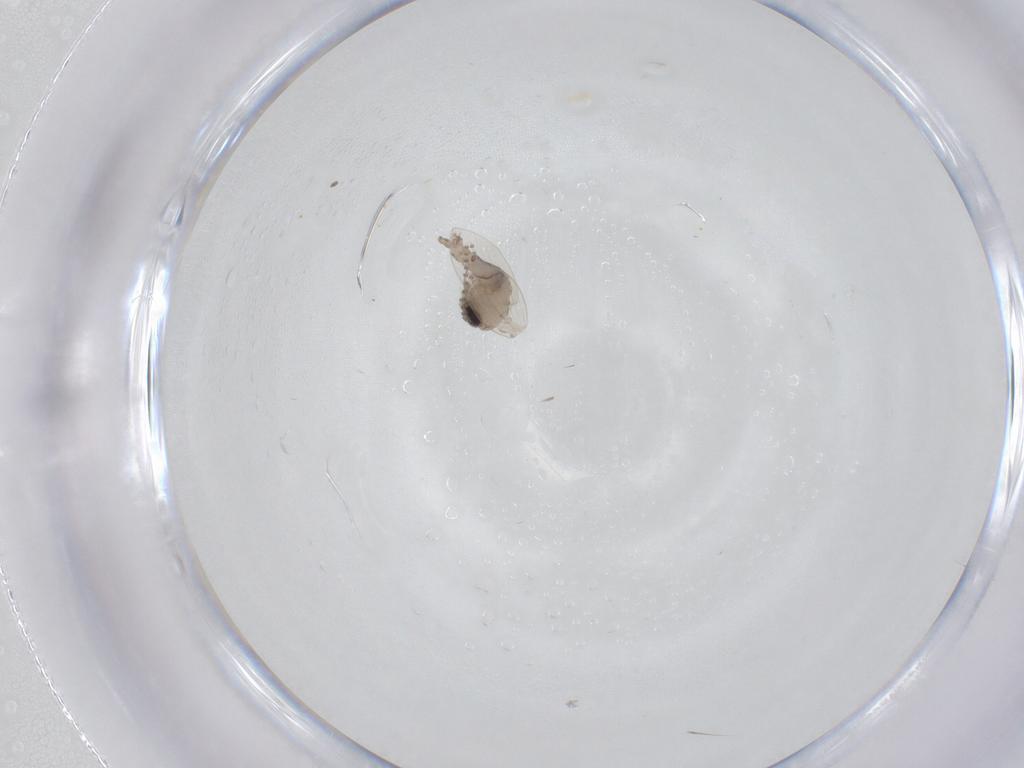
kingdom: Animalia
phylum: Arthropoda
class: Insecta
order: Diptera
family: Psychodidae
